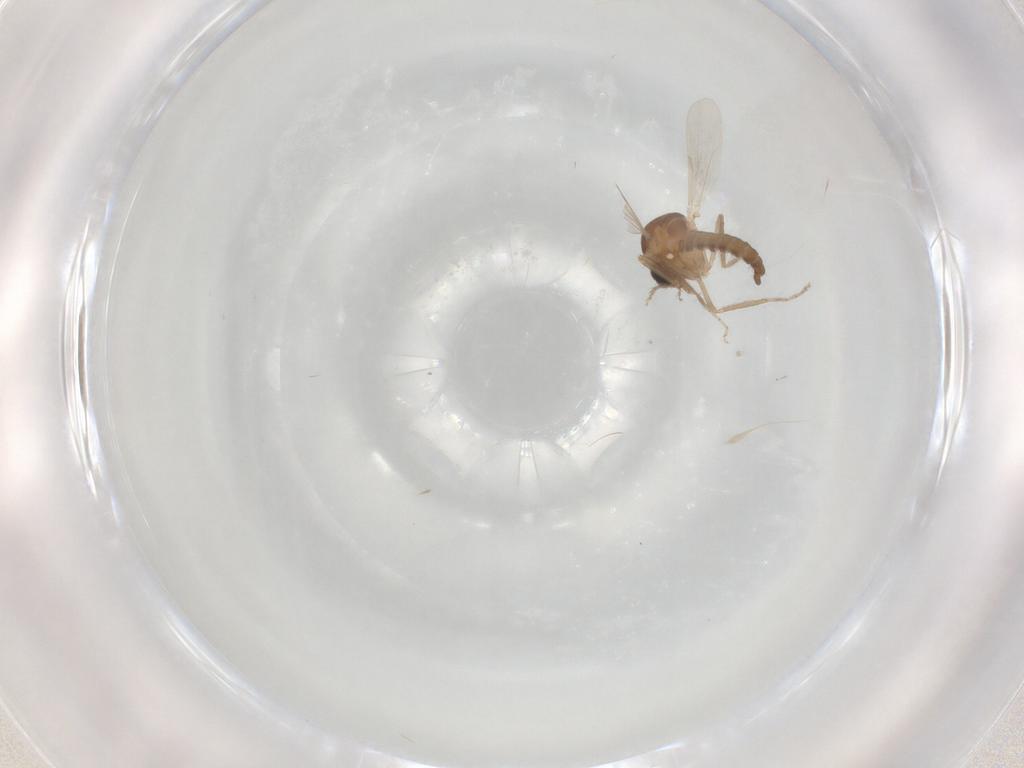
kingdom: Animalia
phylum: Arthropoda
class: Insecta
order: Diptera
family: Ceratopogonidae
